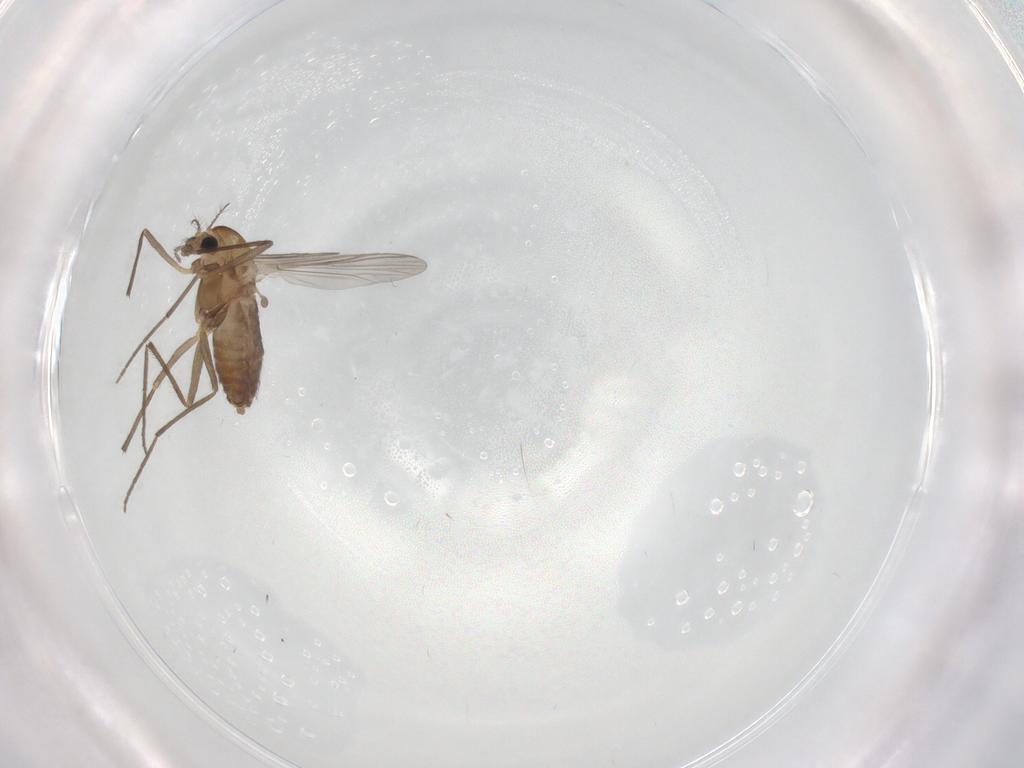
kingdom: Animalia
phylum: Arthropoda
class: Insecta
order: Diptera
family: Chironomidae
